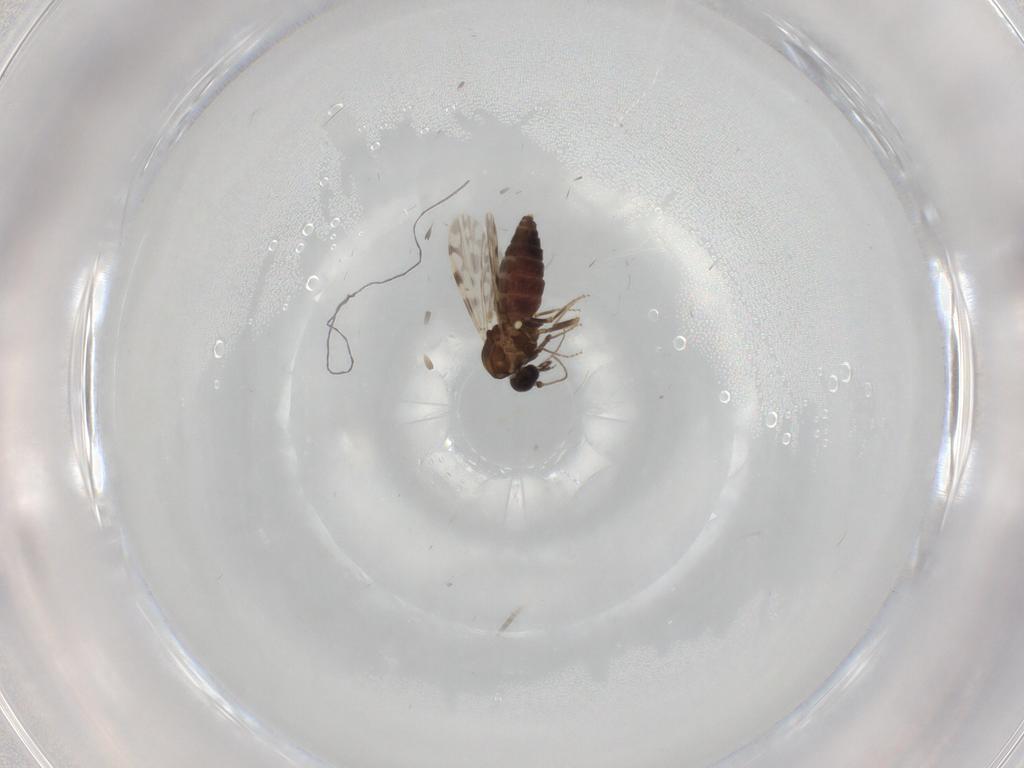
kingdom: Animalia
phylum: Arthropoda
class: Insecta
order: Diptera
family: Ceratopogonidae
